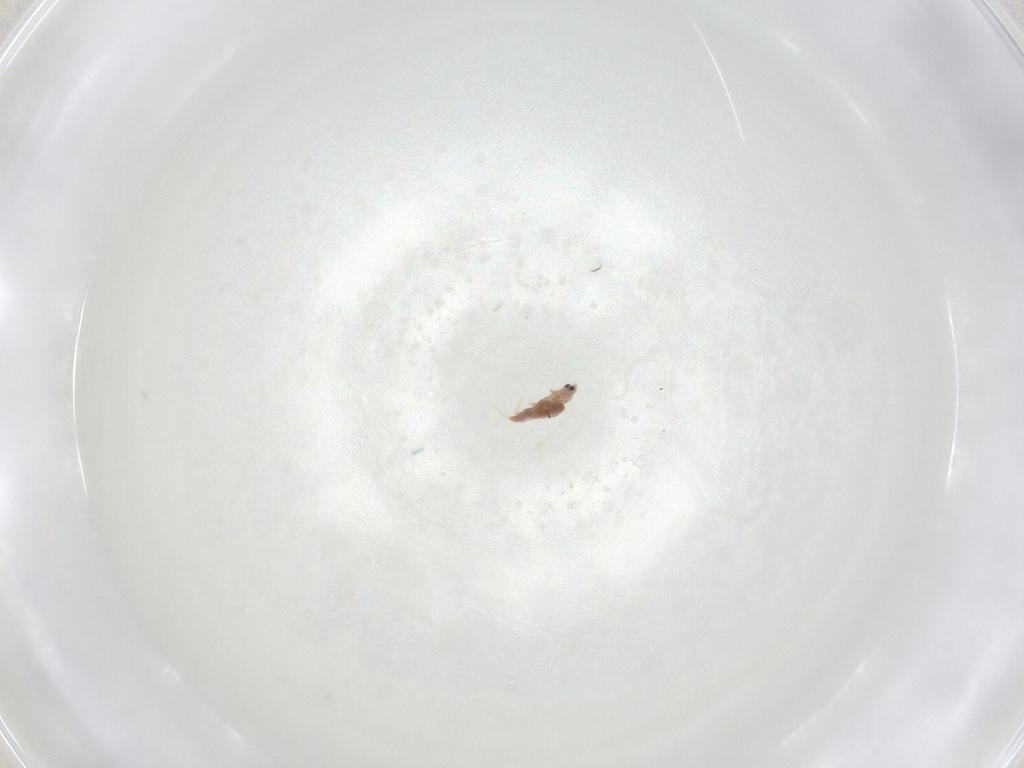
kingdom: Animalia
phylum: Arthropoda
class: Insecta
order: Hemiptera
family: Diaspididae
